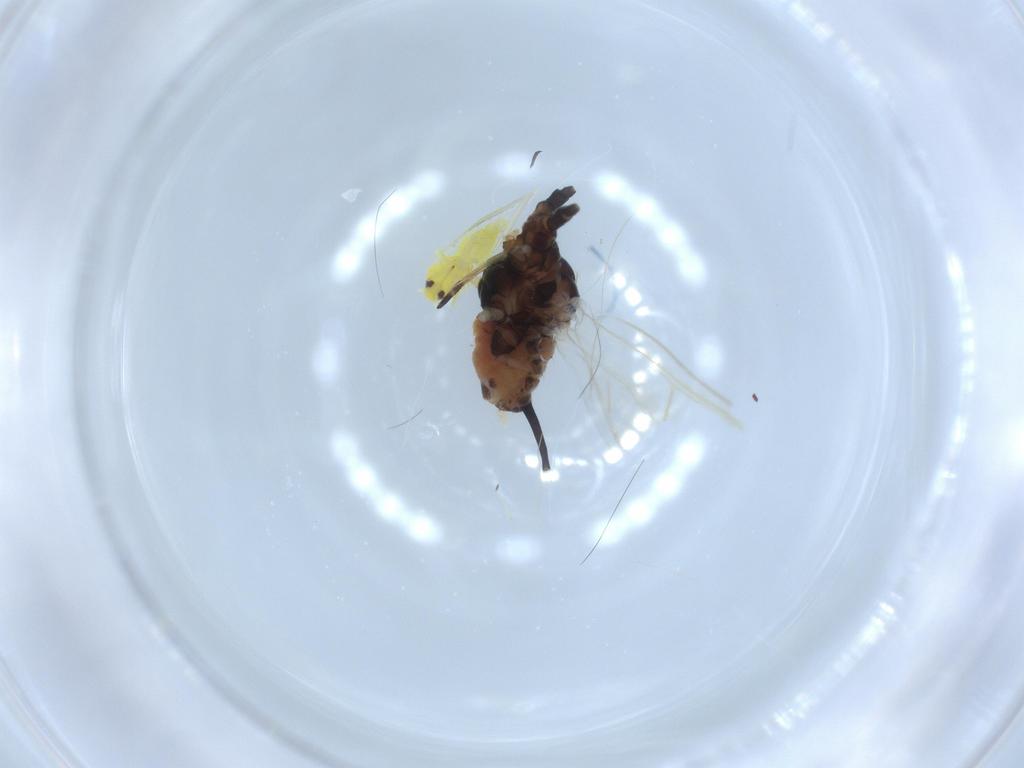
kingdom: Animalia
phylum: Arthropoda
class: Insecta
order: Hemiptera
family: Aphididae
